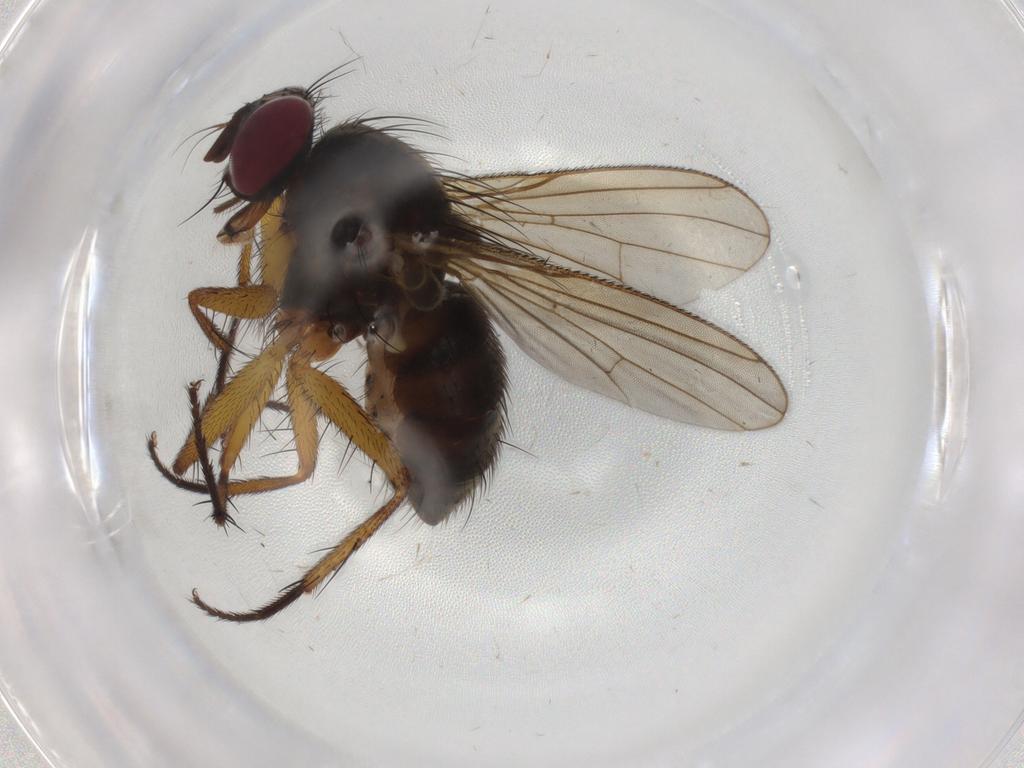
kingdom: Animalia
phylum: Arthropoda
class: Insecta
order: Diptera
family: Muscidae
